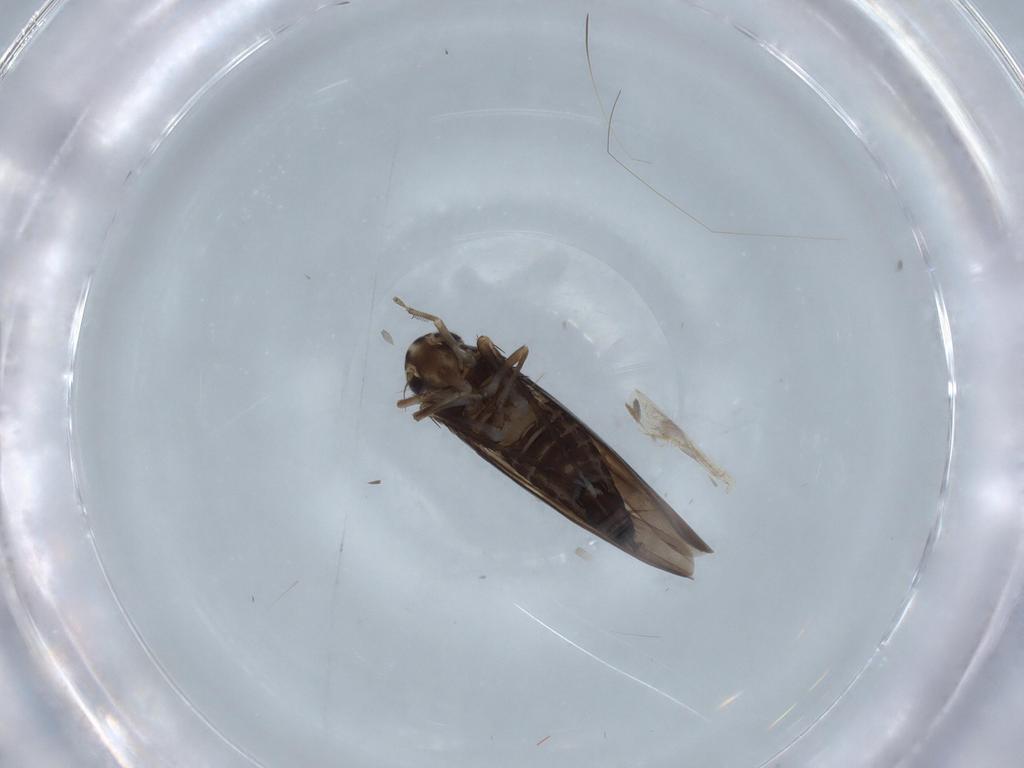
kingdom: Animalia
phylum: Arthropoda
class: Insecta
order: Hemiptera
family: Cicadellidae
